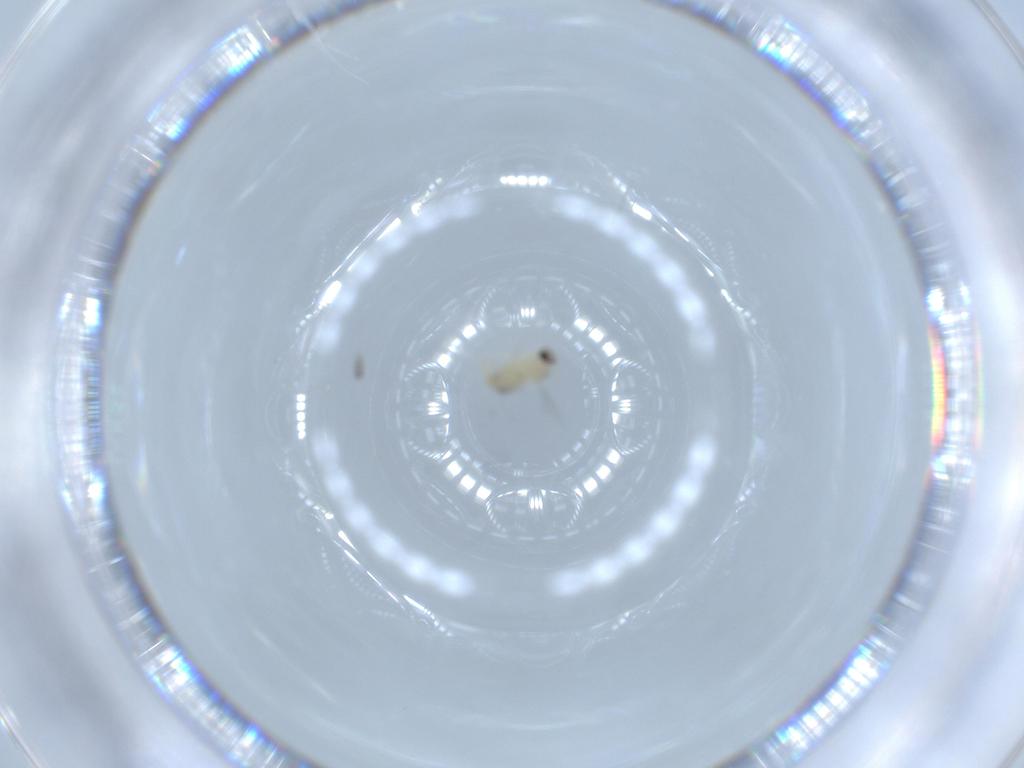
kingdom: Animalia
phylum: Arthropoda
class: Insecta
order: Diptera
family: Cecidomyiidae
